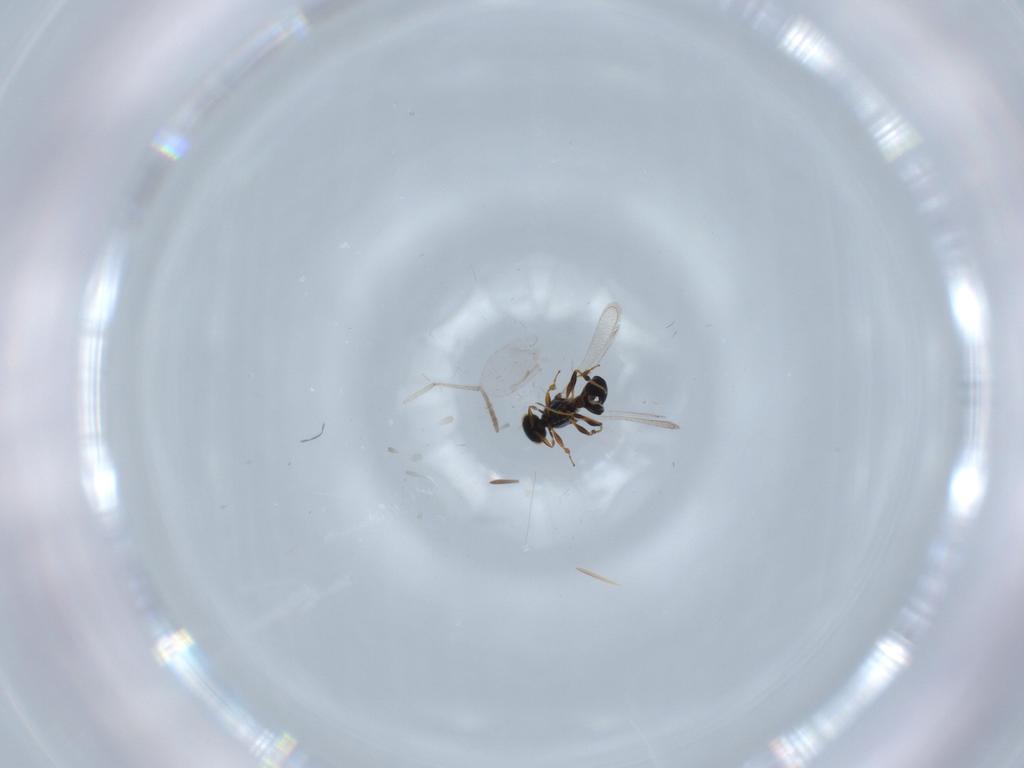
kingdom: Animalia
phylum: Arthropoda
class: Insecta
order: Hymenoptera
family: Platygastridae
